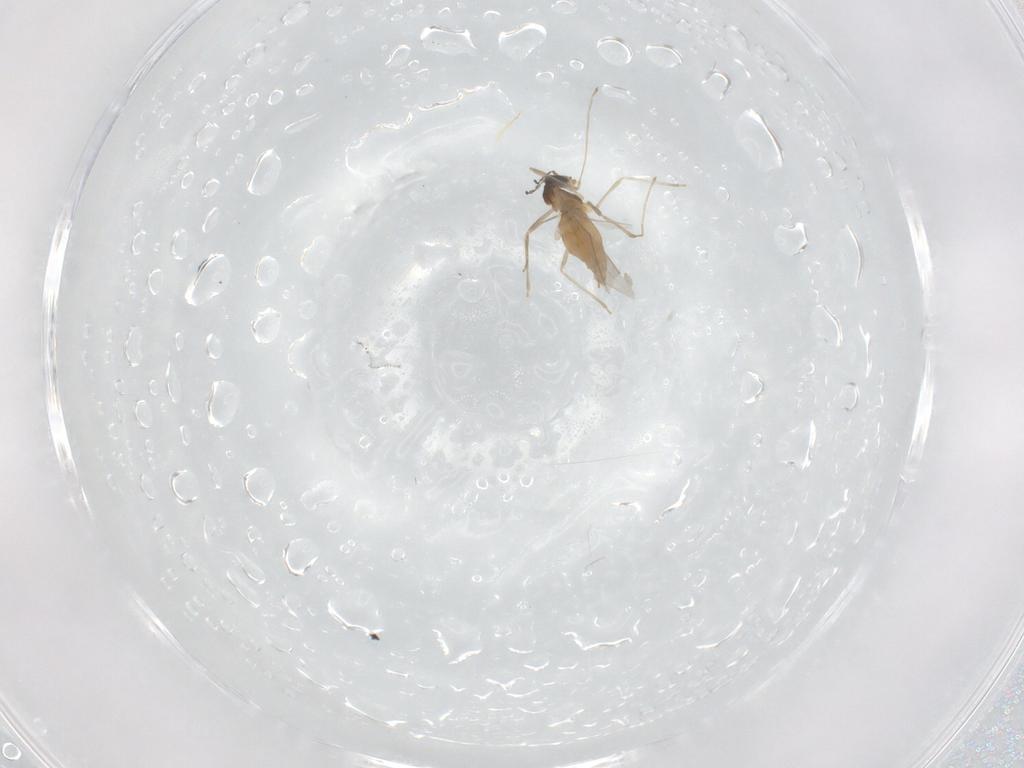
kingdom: Animalia
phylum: Arthropoda
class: Insecta
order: Diptera
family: Cecidomyiidae
